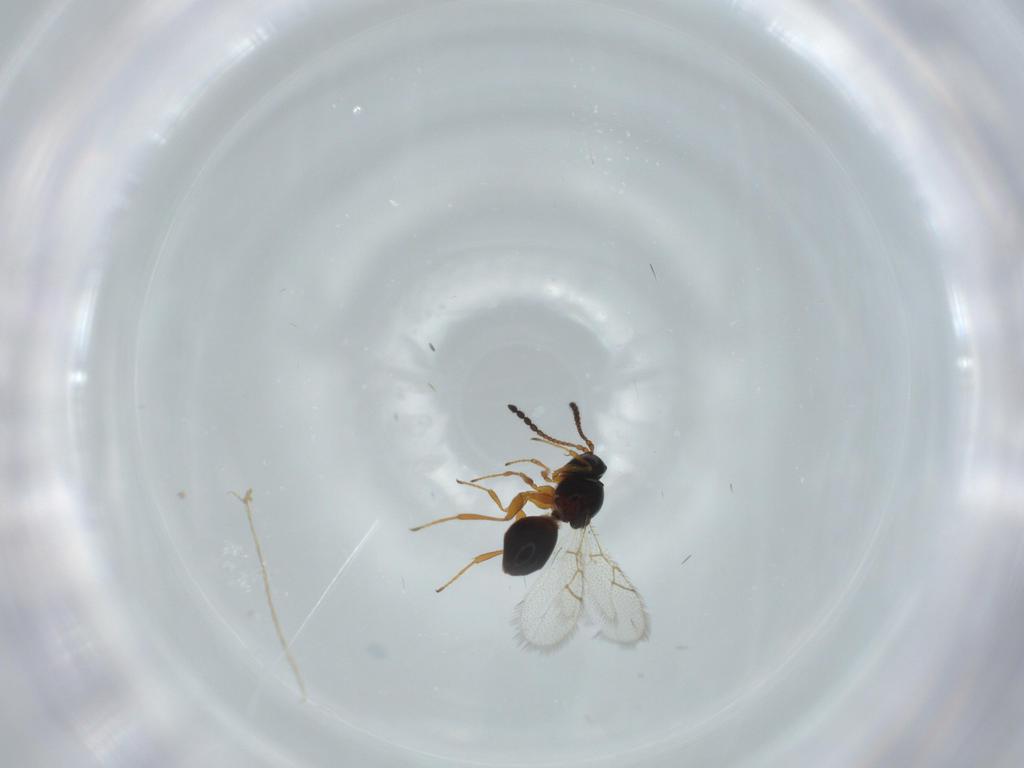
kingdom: Animalia
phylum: Arthropoda
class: Insecta
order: Hymenoptera
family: Figitidae
